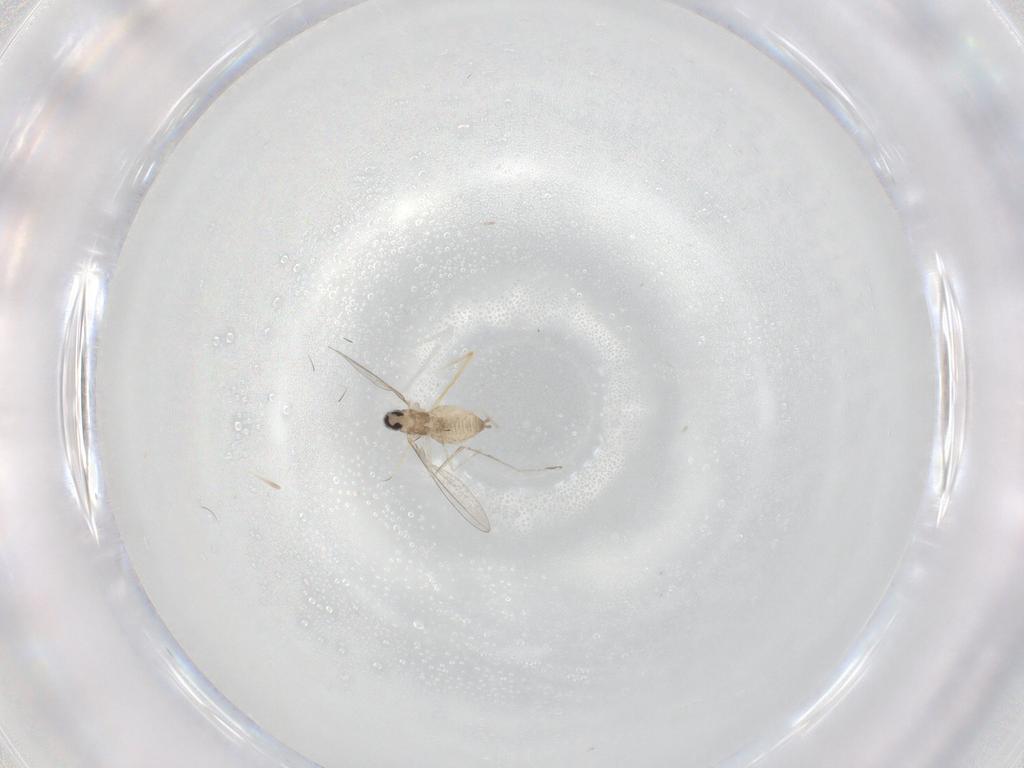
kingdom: Animalia
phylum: Arthropoda
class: Insecta
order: Diptera
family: Cecidomyiidae
